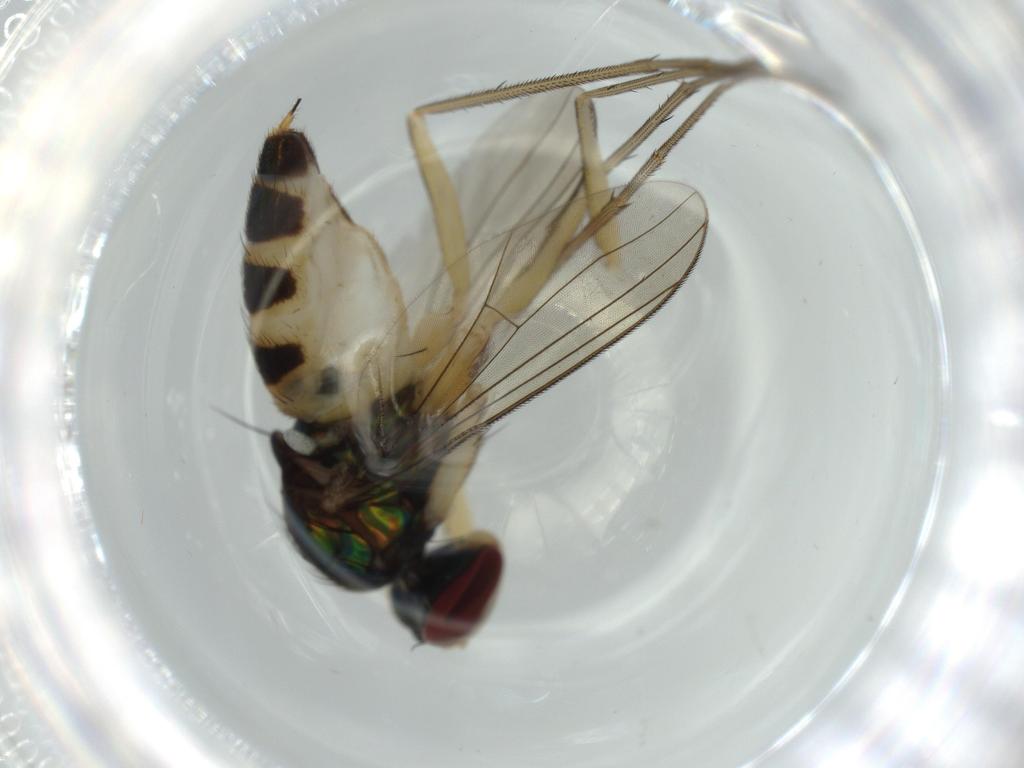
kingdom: Animalia
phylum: Arthropoda
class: Insecta
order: Diptera
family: Dolichopodidae
